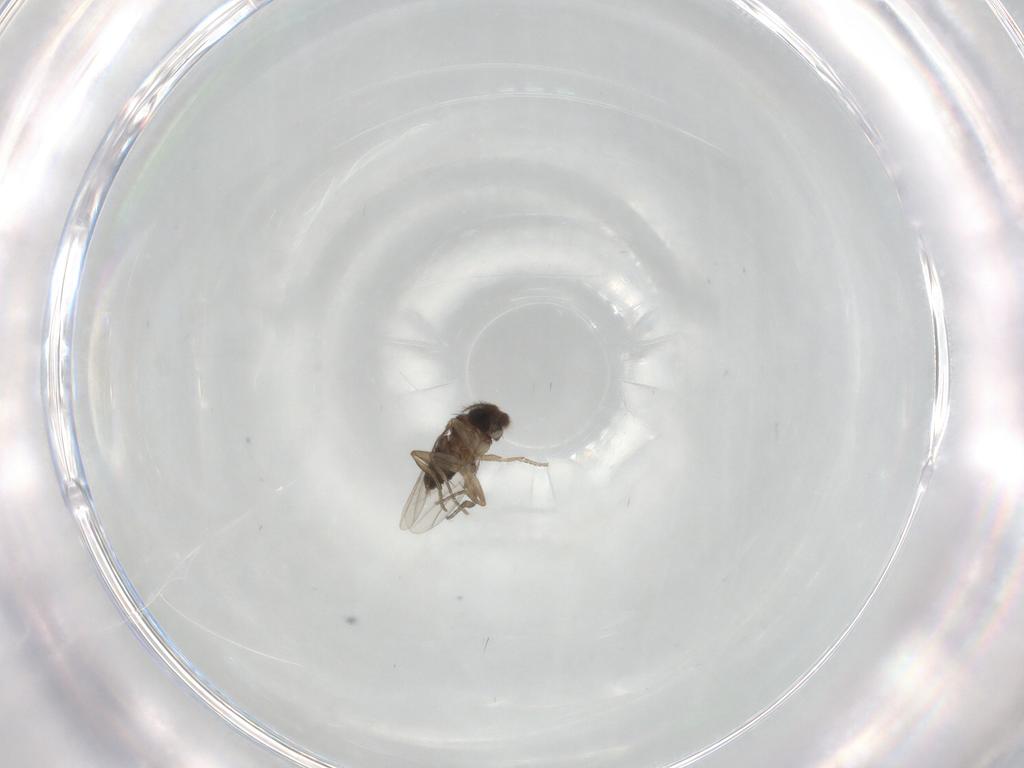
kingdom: Animalia
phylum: Arthropoda
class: Insecta
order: Diptera
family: Phoridae
